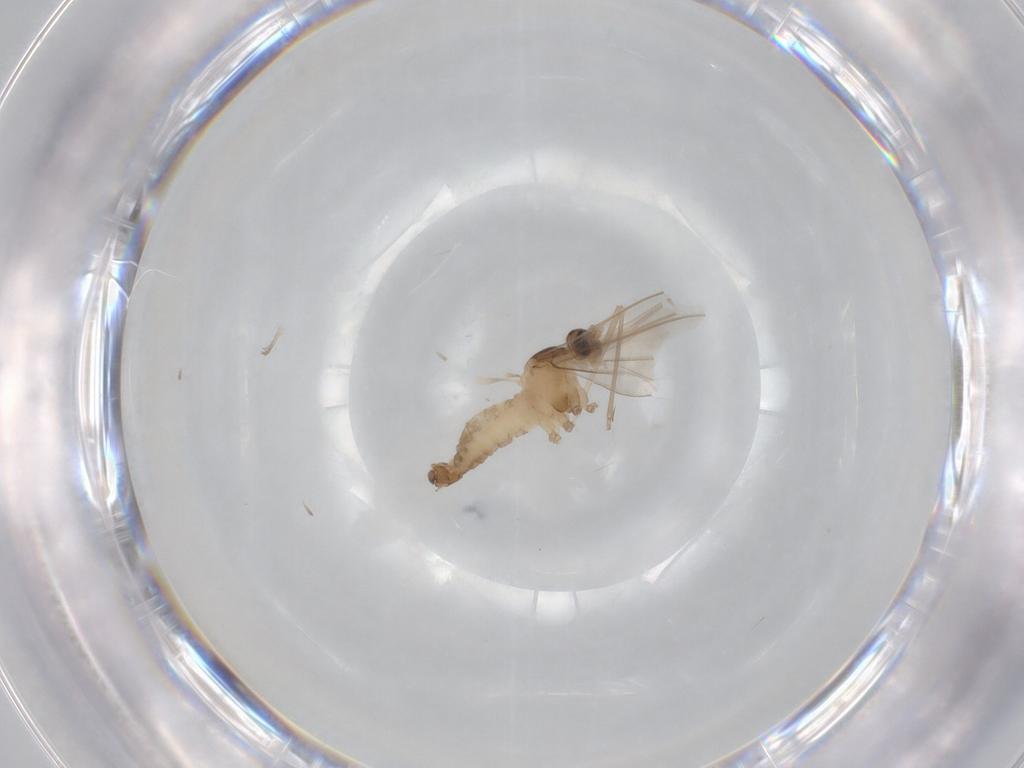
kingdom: Animalia
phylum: Arthropoda
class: Insecta
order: Diptera
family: Cecidomyiidae
